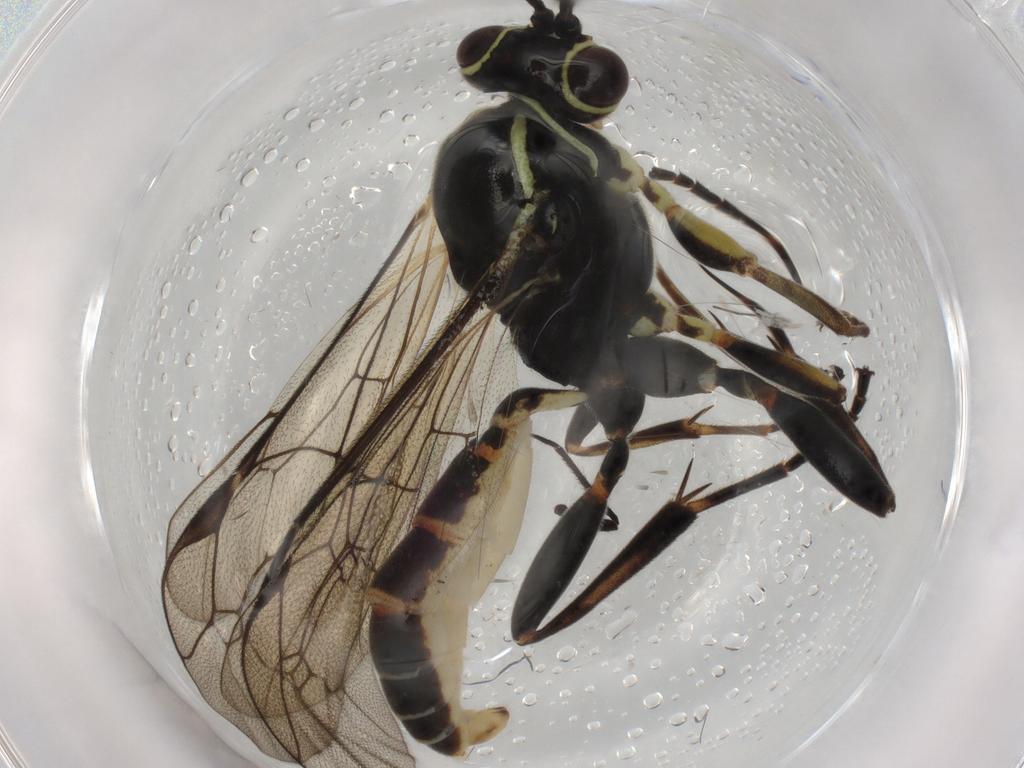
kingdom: Animalia
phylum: Arthropoda
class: Insecta
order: Hymenoptera
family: Ichneumonidae
